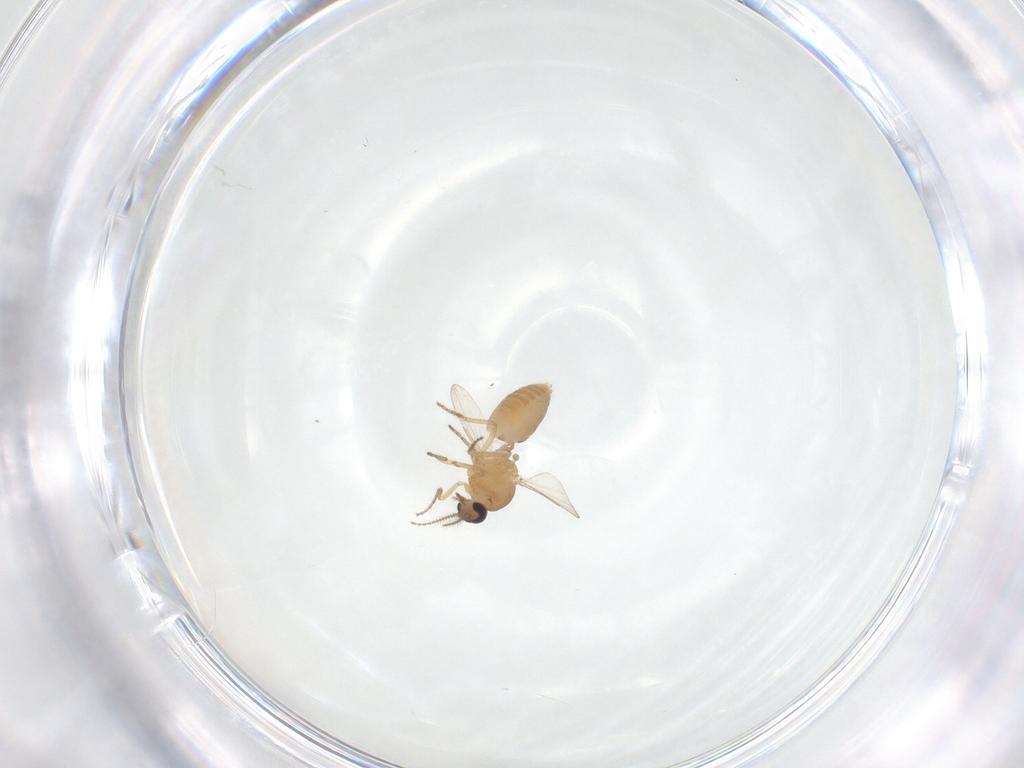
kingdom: Animalia
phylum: Arthropoda
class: Insecta
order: Diptera
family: Ceratopogonidae
